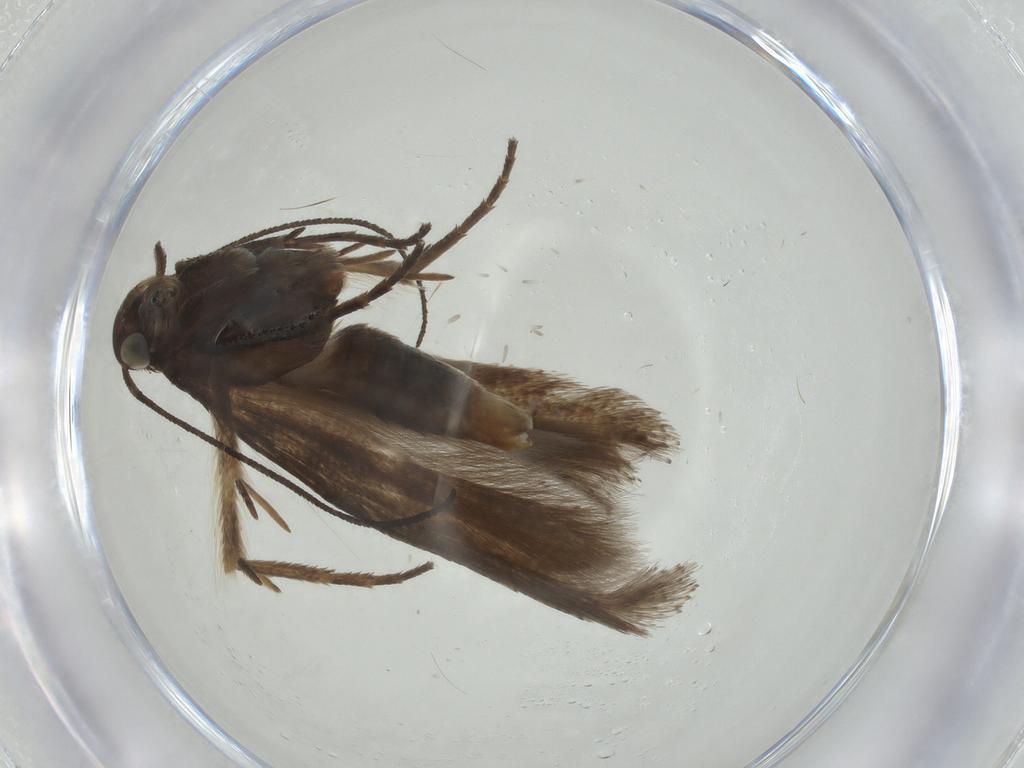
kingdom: Animalia
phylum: Arthropoda
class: Insecta
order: Lepidoptera
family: Gelechiidae
